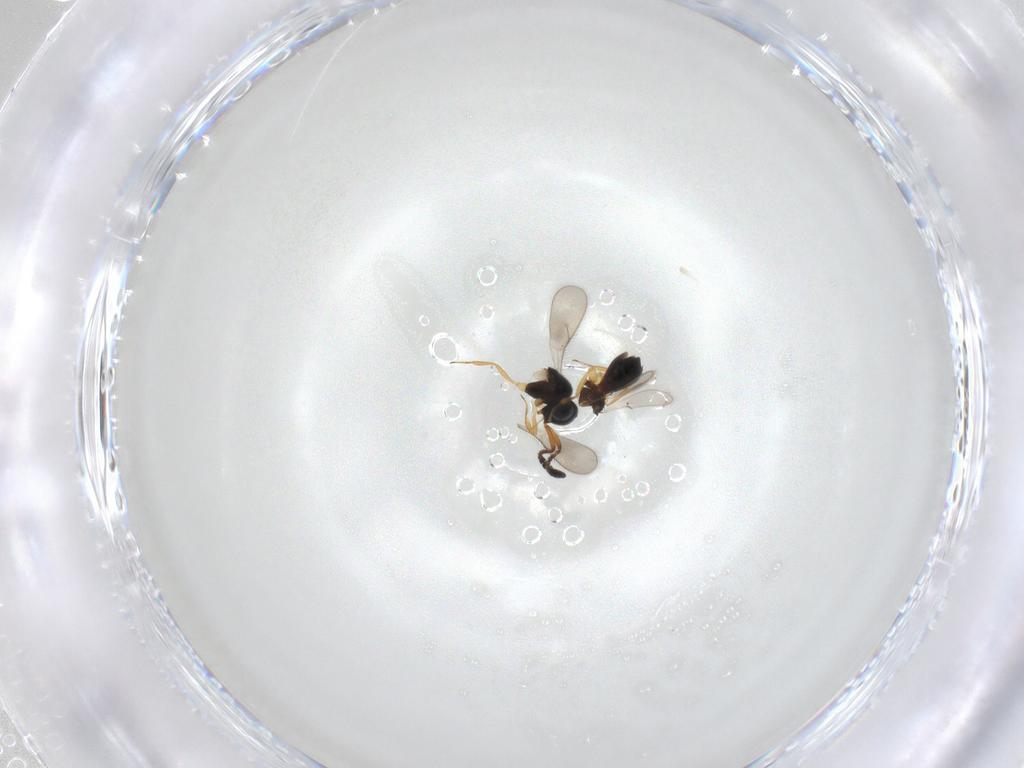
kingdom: Animalia
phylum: Arthropoda
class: Insecta
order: Hymenoptera
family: Scelionidae
